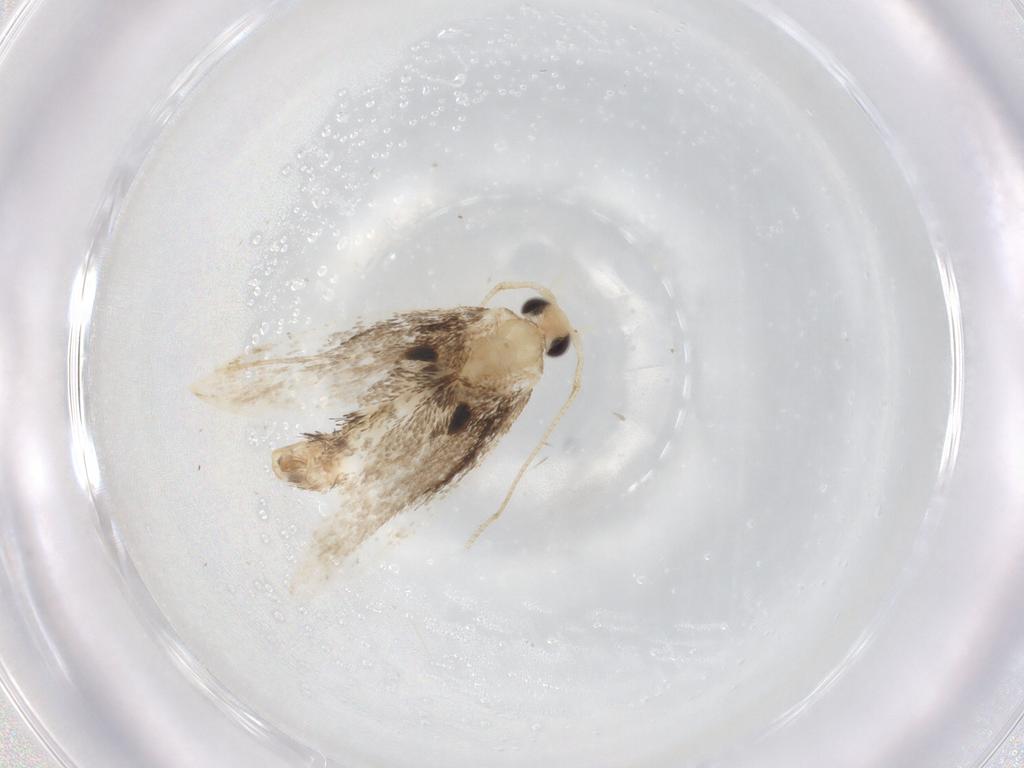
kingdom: Animalia
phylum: Arthropoda
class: Insecta
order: Lepidoptera
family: Dryadaulidae
